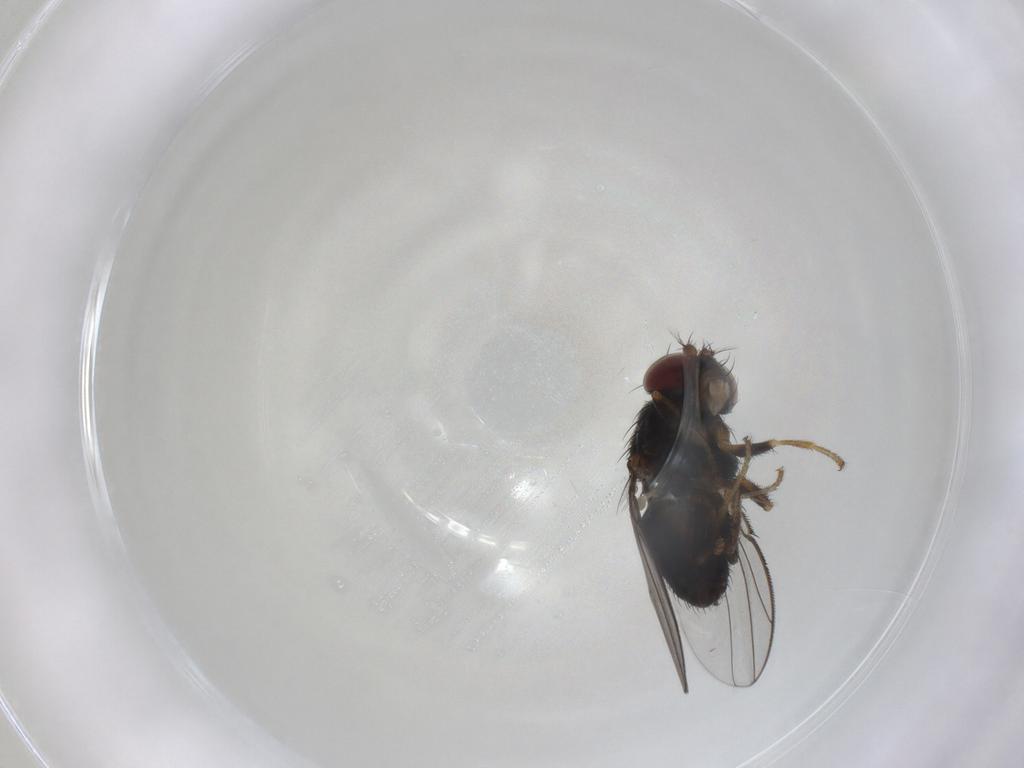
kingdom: Animalia
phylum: Arthropoda
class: Insecta
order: Diptera
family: Dolichopodidae
